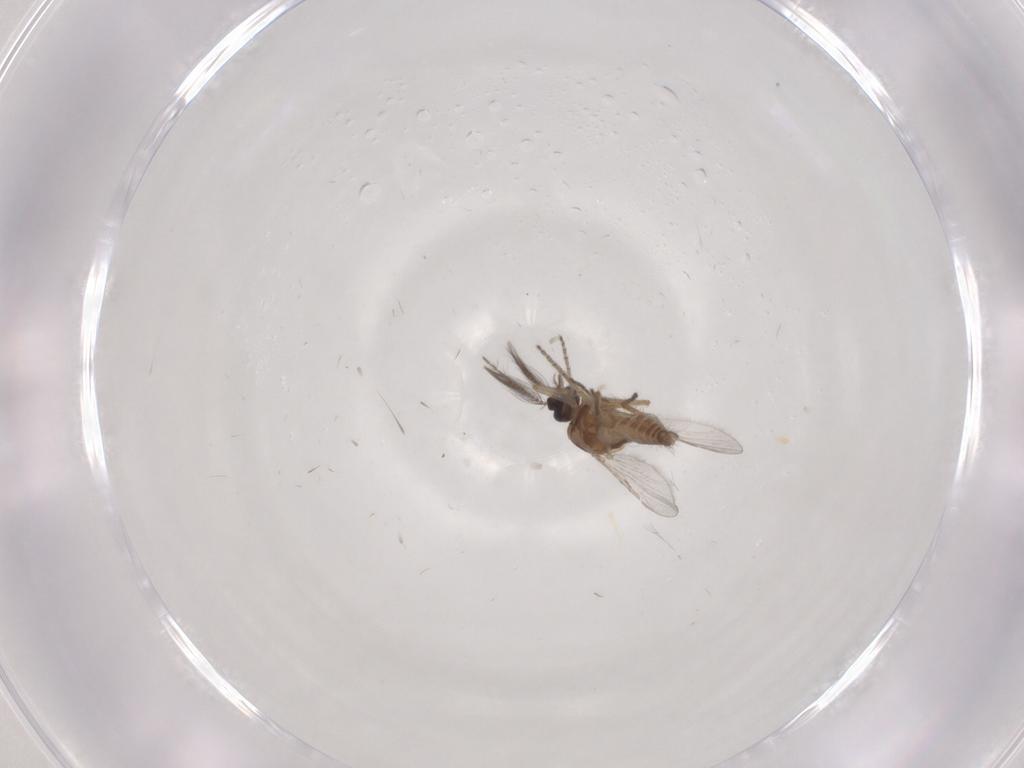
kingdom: Animalia
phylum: Arthropoda
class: Insecta
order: Diptera
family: Ceratopogonidae
